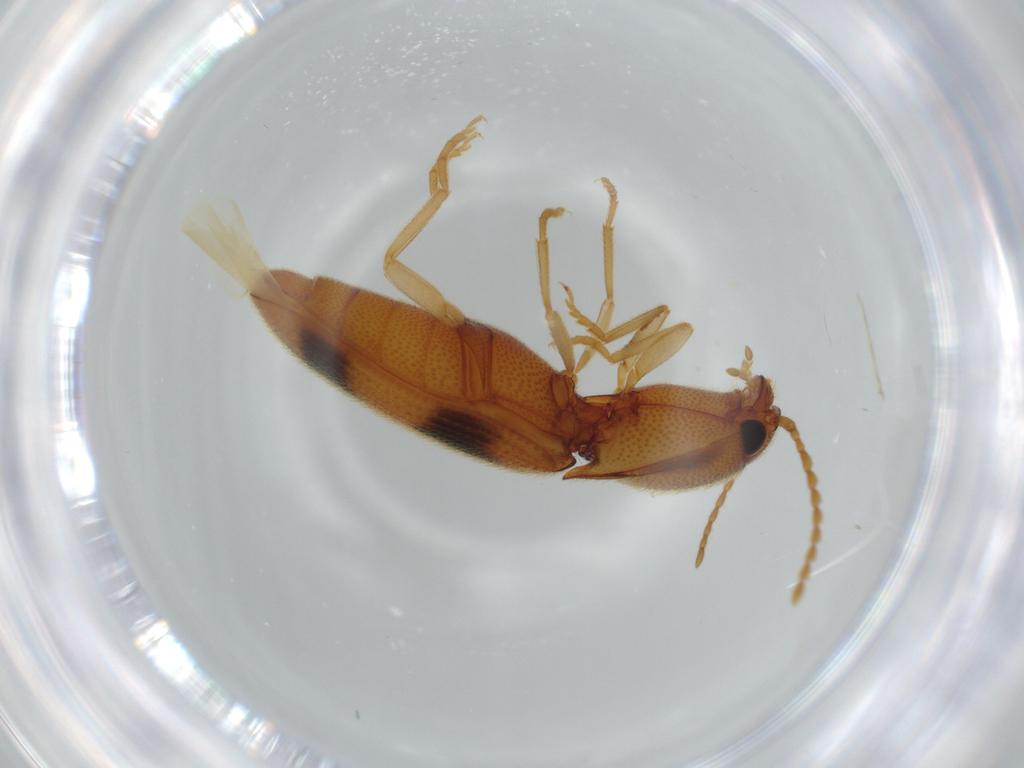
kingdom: Animalia
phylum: Arthropoda
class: Insecta
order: Coleoptera
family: Elateridae
